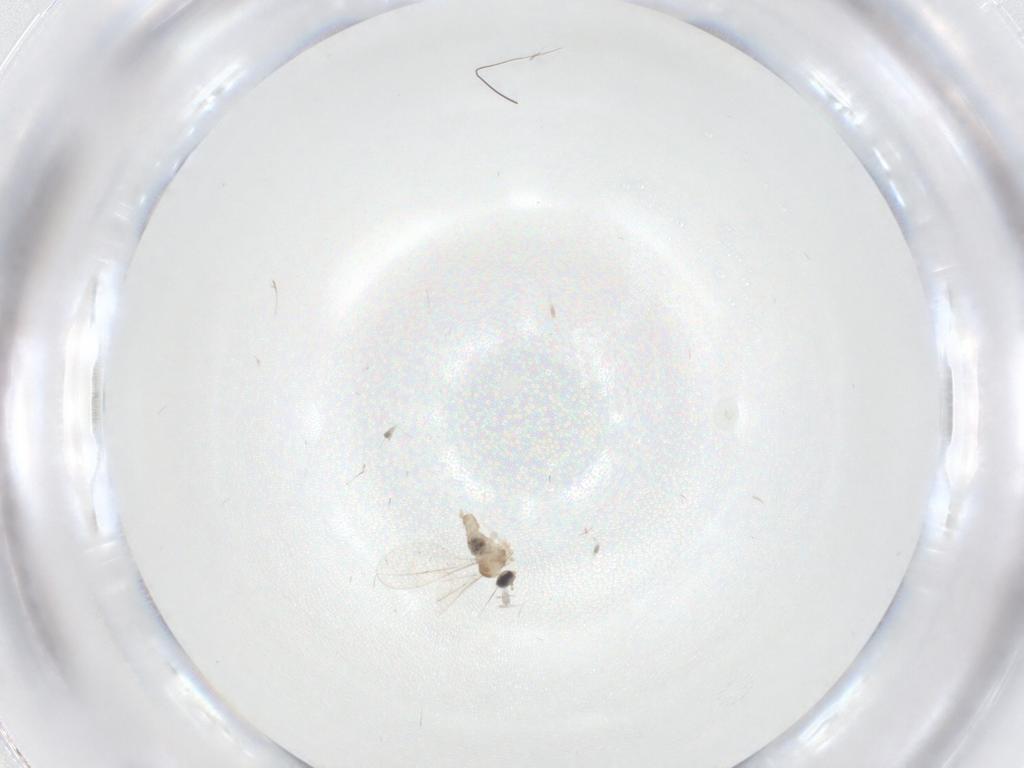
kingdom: Animalia
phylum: Arthropoda
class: Insecta
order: Diptera
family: Cecidomyiidae
